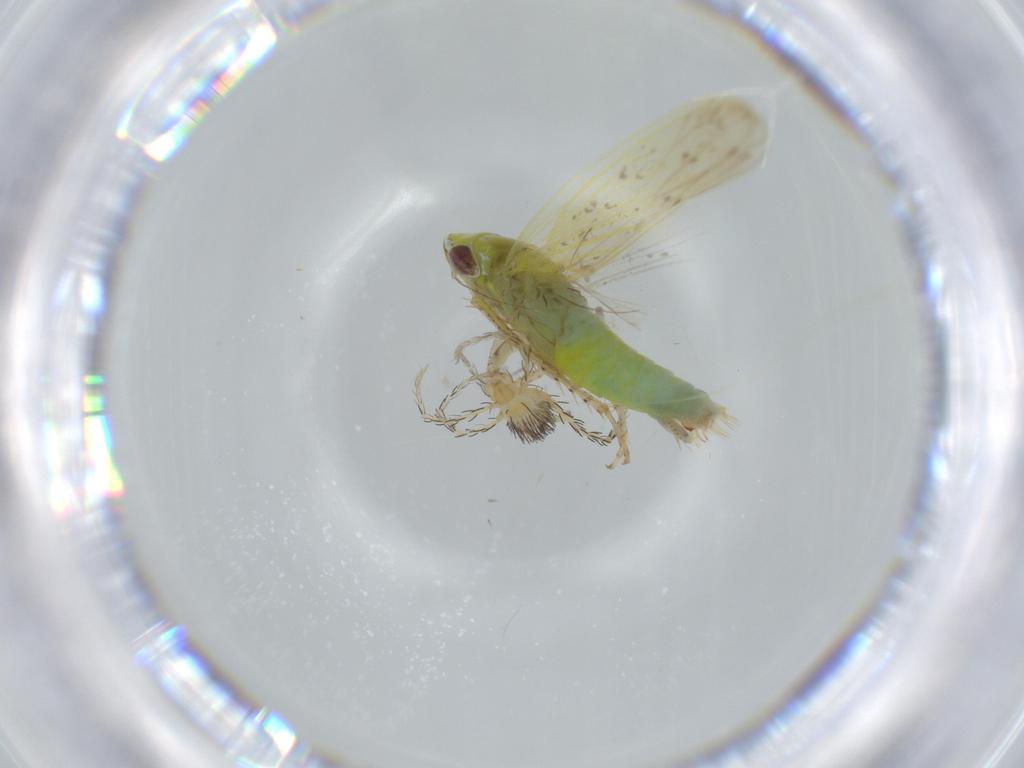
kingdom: Animalia
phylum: Arthropoda
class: Insecta
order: Hemiptera
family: Cicadellidae
